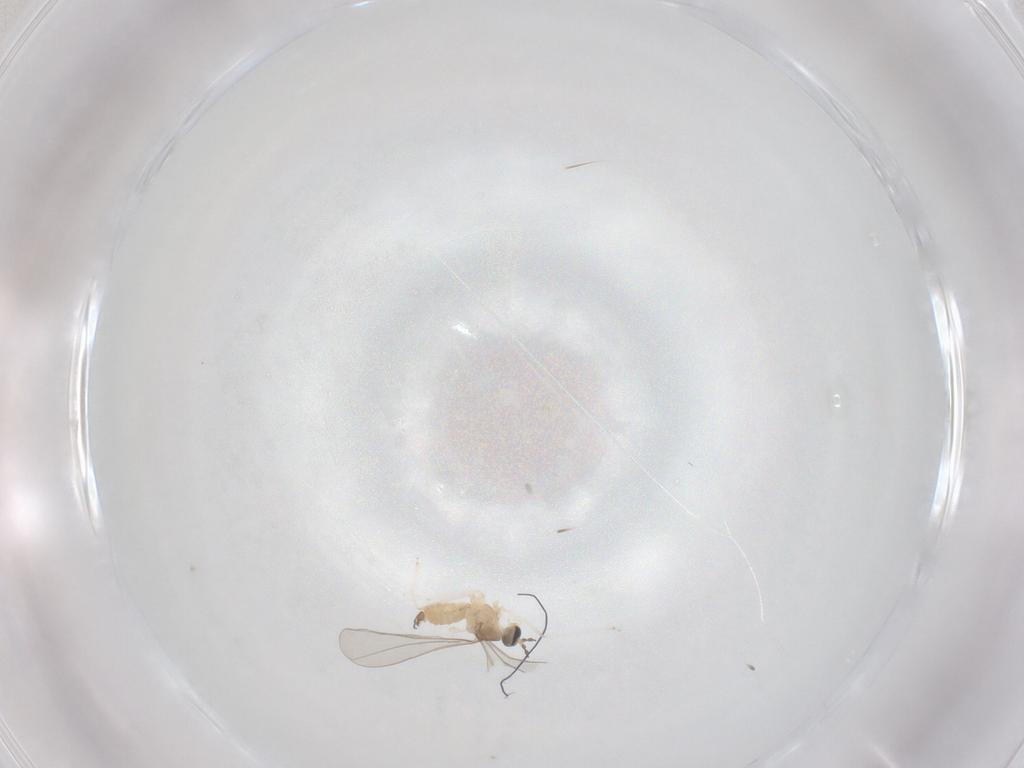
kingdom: Animalia
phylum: Arthropoda
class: Insecta
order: Diptera
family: Cecidomyiidae
